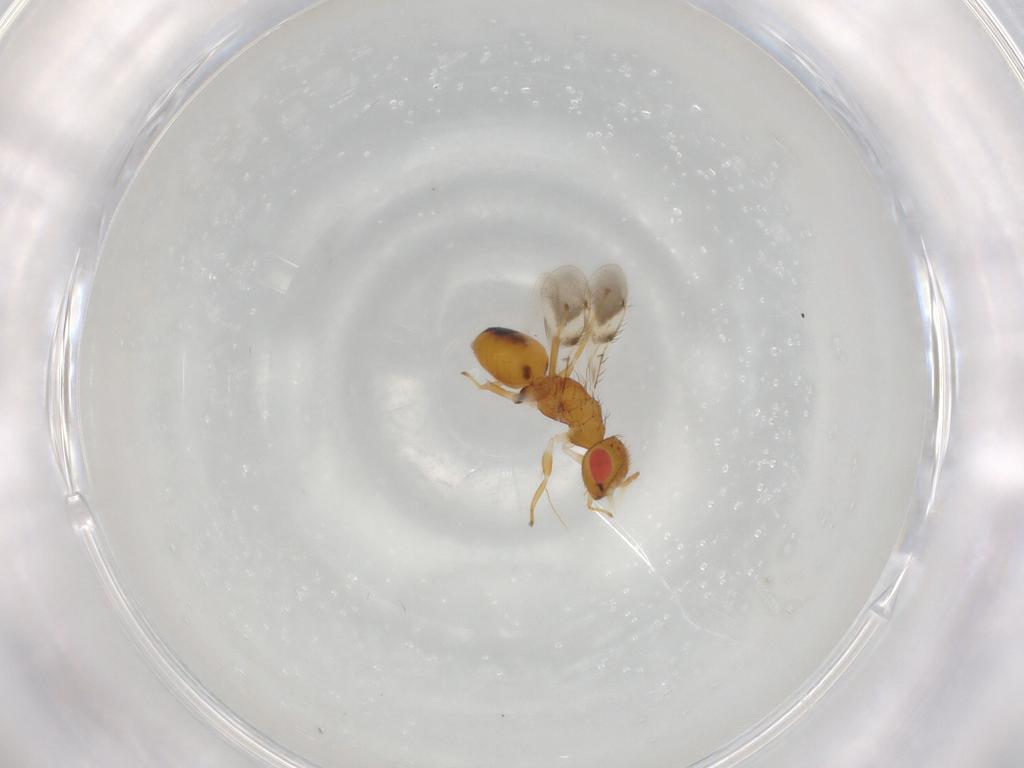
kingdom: Animalia
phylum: Arthropoda
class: Insecta
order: Hymenoptera
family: Eulophidae
